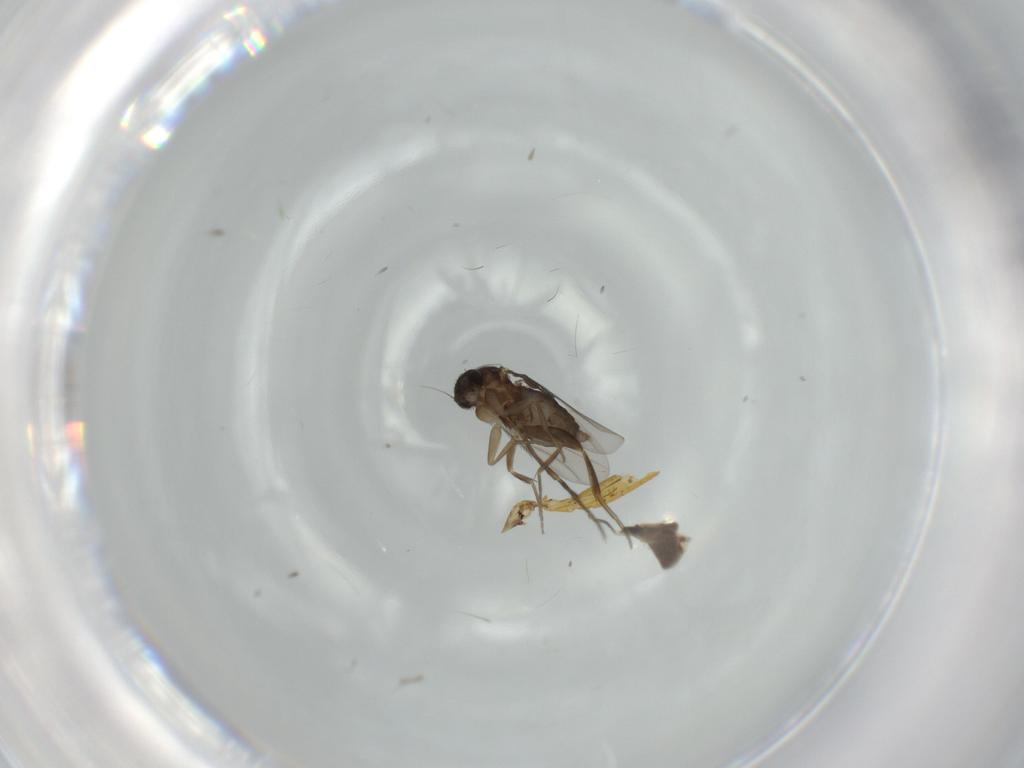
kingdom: Animalia
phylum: Arthropoda
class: Insecta
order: Diptera
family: Phoridae
